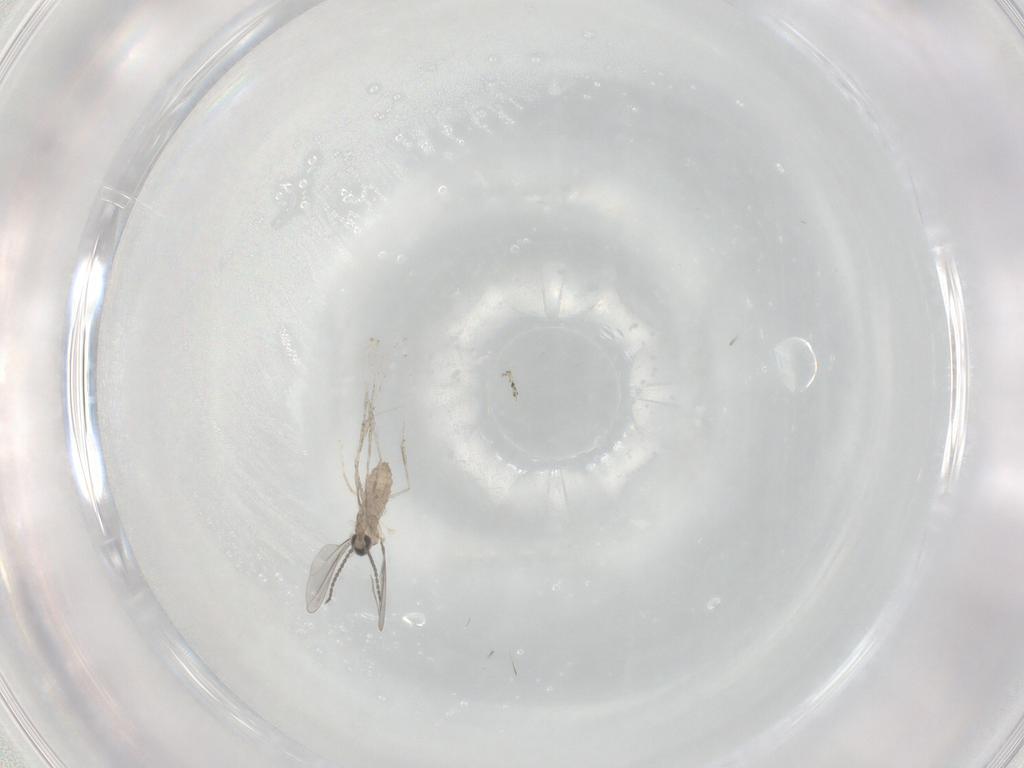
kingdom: Animalia
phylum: Arthropoda
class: Insecta
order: Diptera
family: Cecidomyiidae
